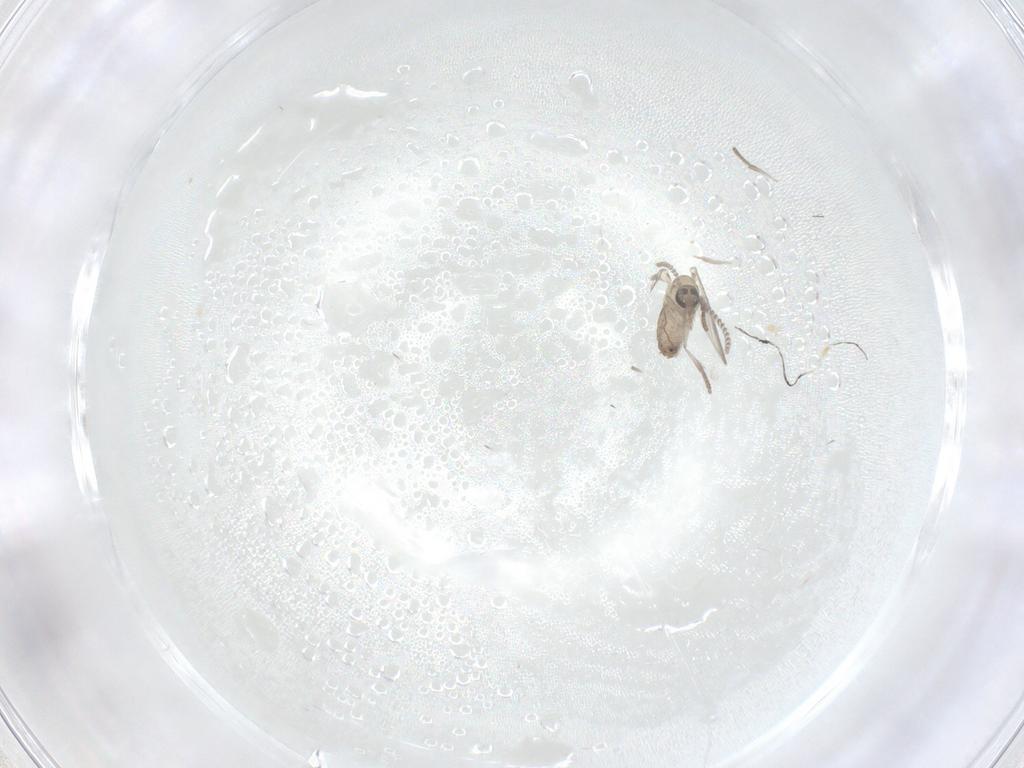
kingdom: Animalia
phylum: Arthropoda
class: Insecta
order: Diptera
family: Psychodidae
